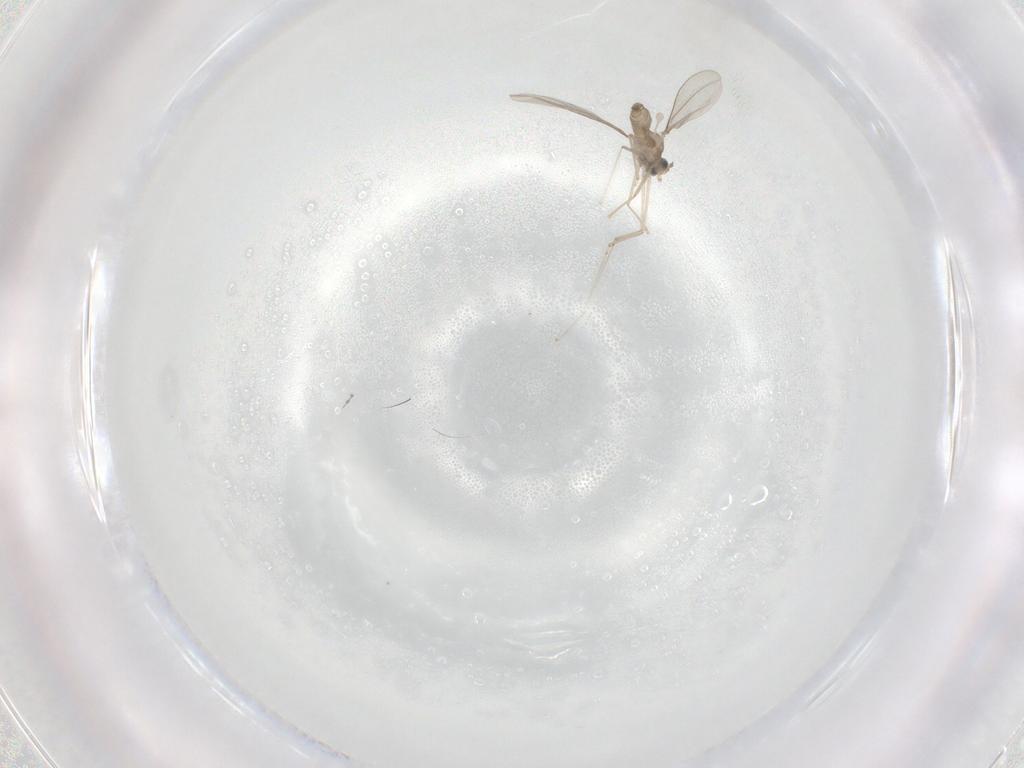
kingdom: Animalia
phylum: Arthropoda
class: Insecta
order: Diptera
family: Cecidomyiidae
